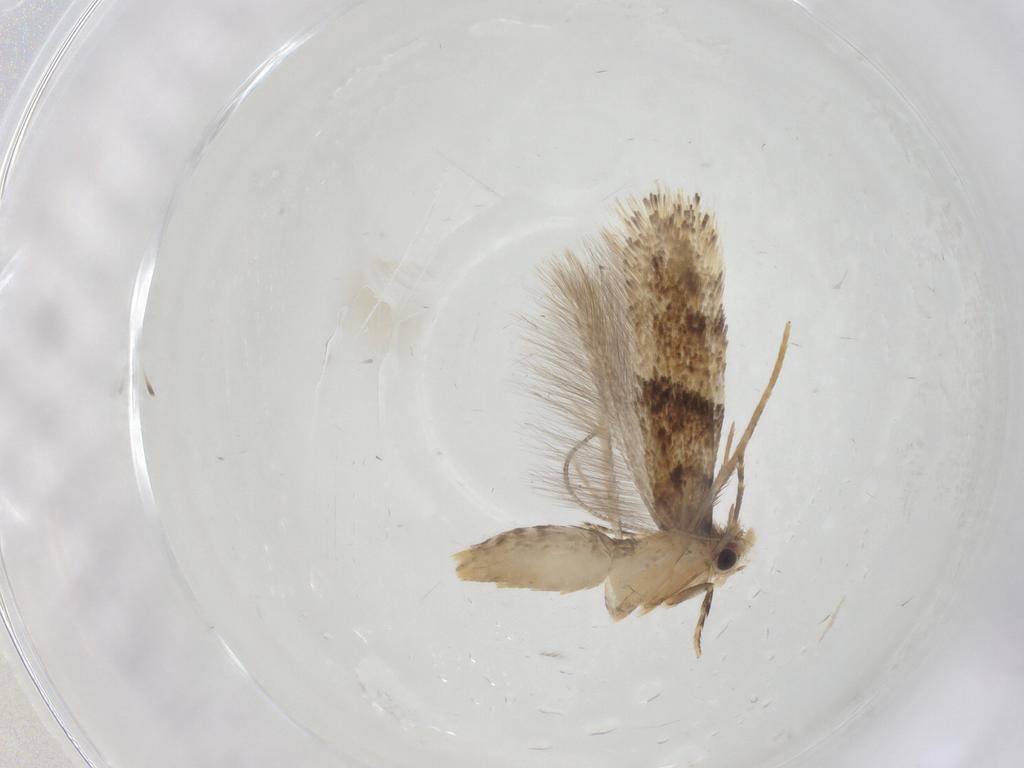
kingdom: Animalia
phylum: Arthropoda
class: Insecta
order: Lepidoptera
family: Tineidae
